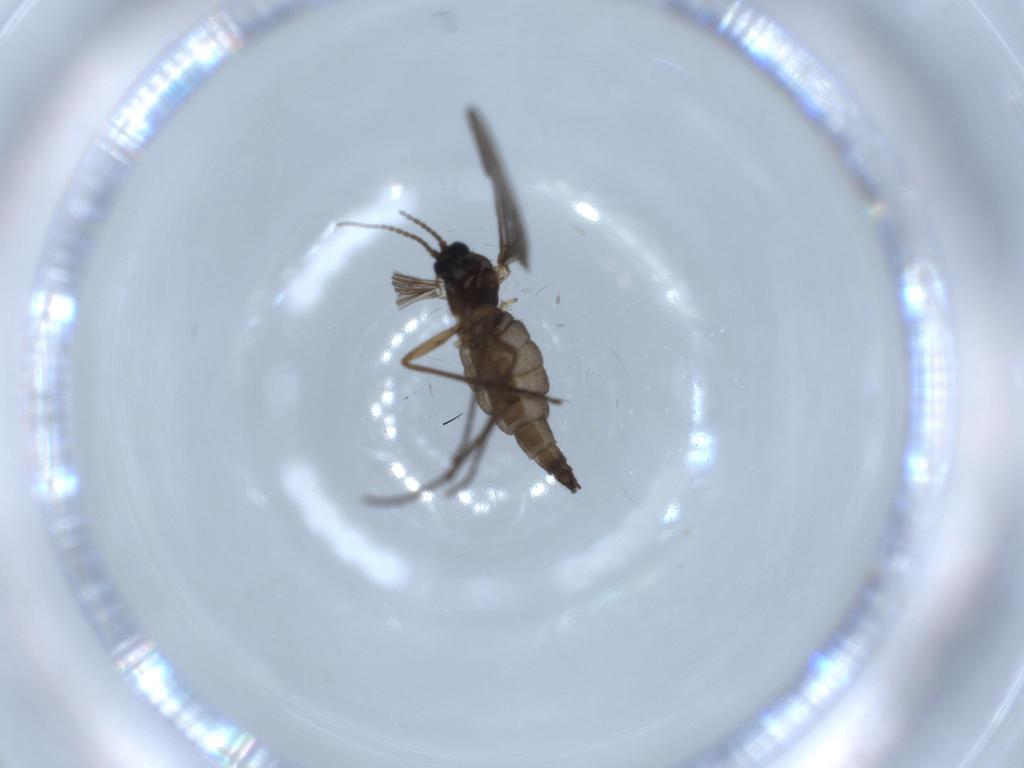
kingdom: Animalia
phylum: Arthropoda
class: Insecta
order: Diptera
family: Sciaridae
